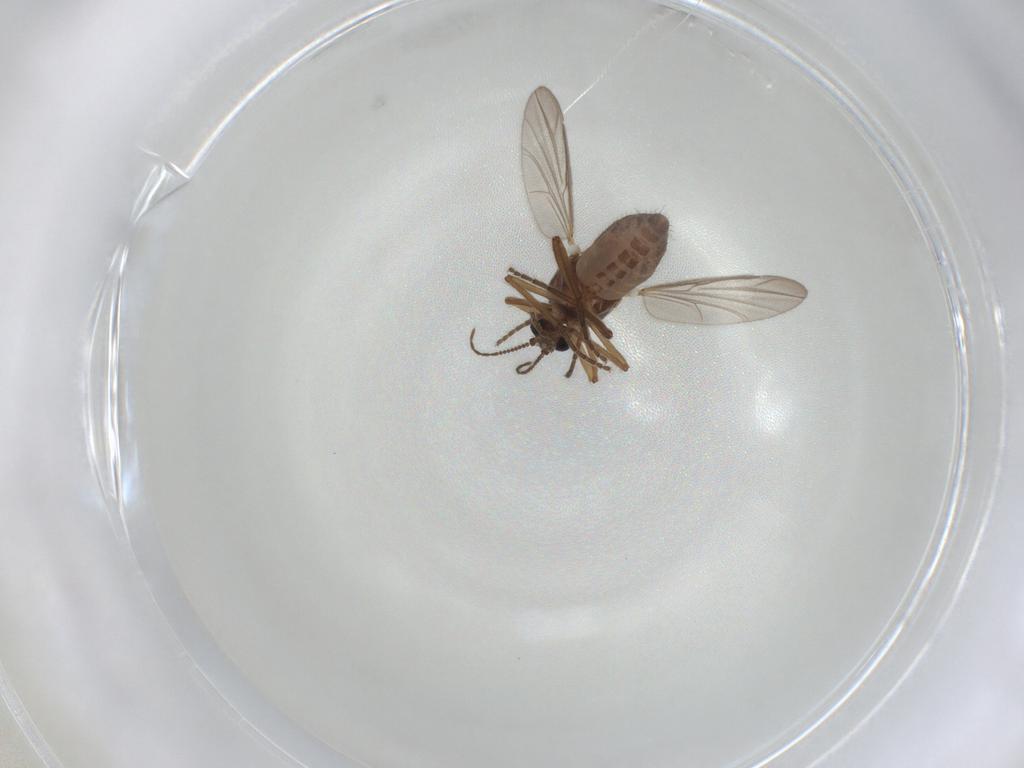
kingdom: Animalia
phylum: Arthropoda
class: Insecta
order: Diptera
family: Ceratopogonidae
